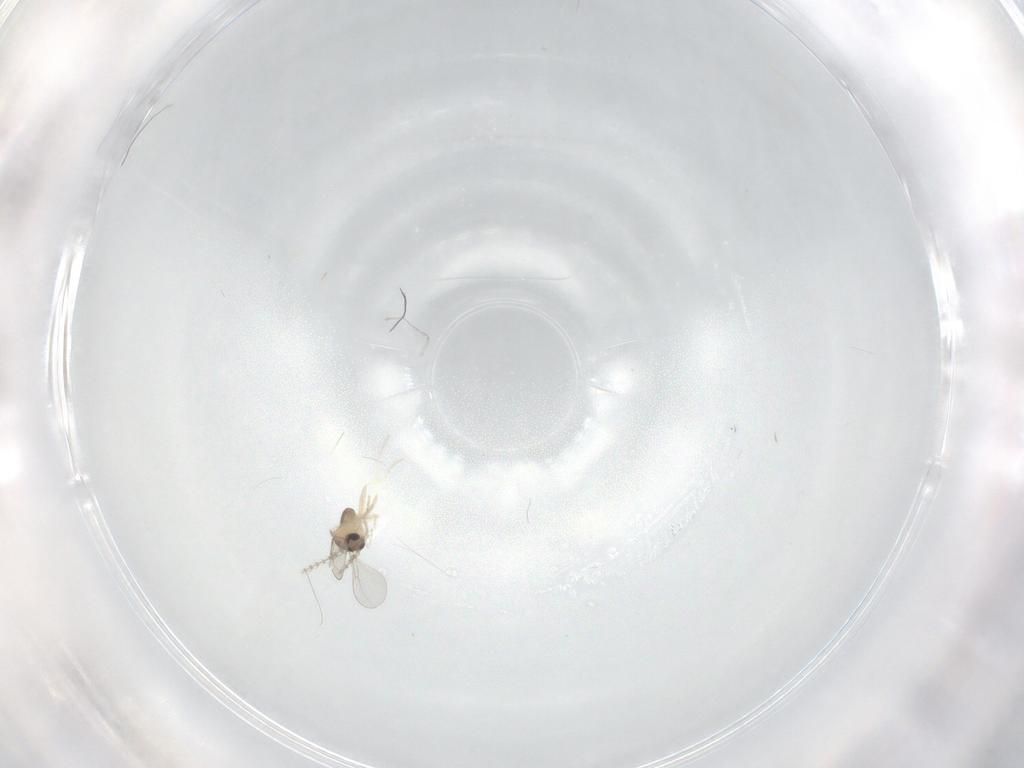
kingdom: Animalia
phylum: Arthropoda
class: Insecta
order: Diptera
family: Cecidomyiidae
